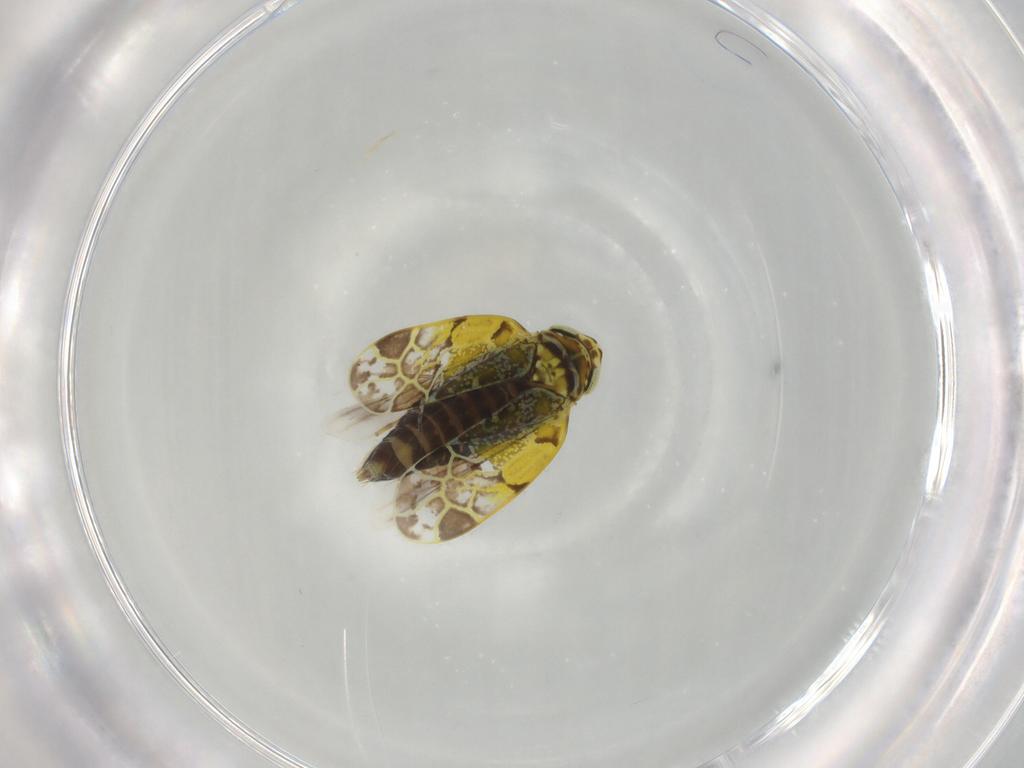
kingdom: Animalia
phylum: Arthropoda
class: Insecta
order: Hemiptera
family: Cicadellidae
